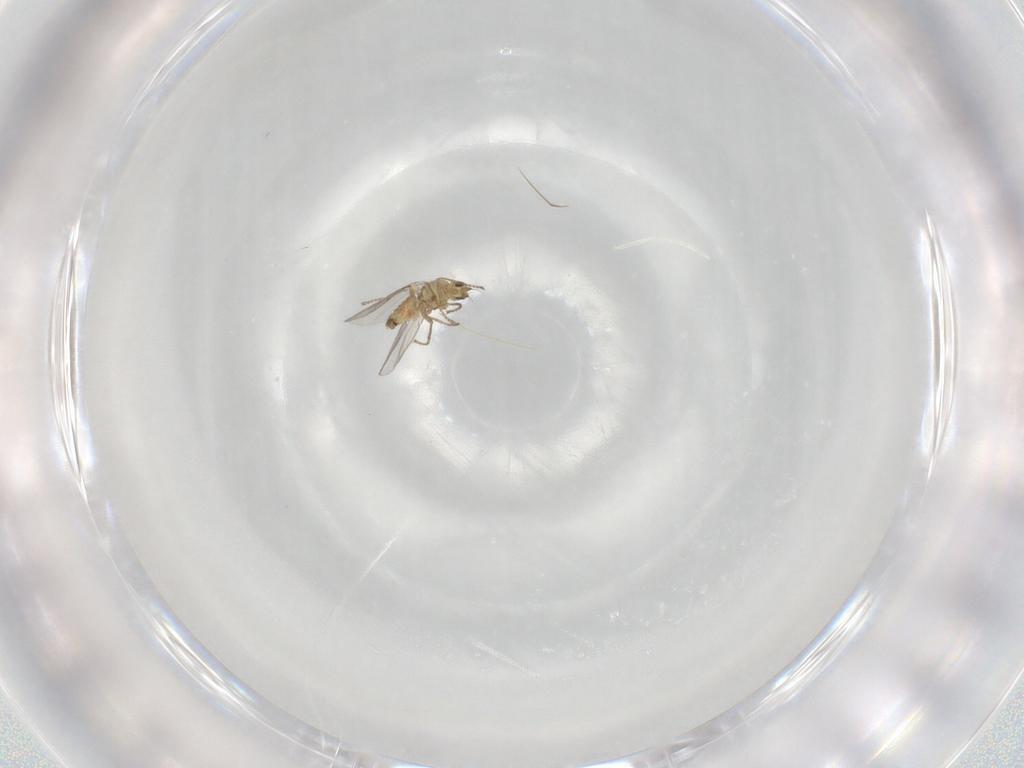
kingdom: Animalia
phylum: Arthropoda
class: Insecta
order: Diptera
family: Agromyzidae
